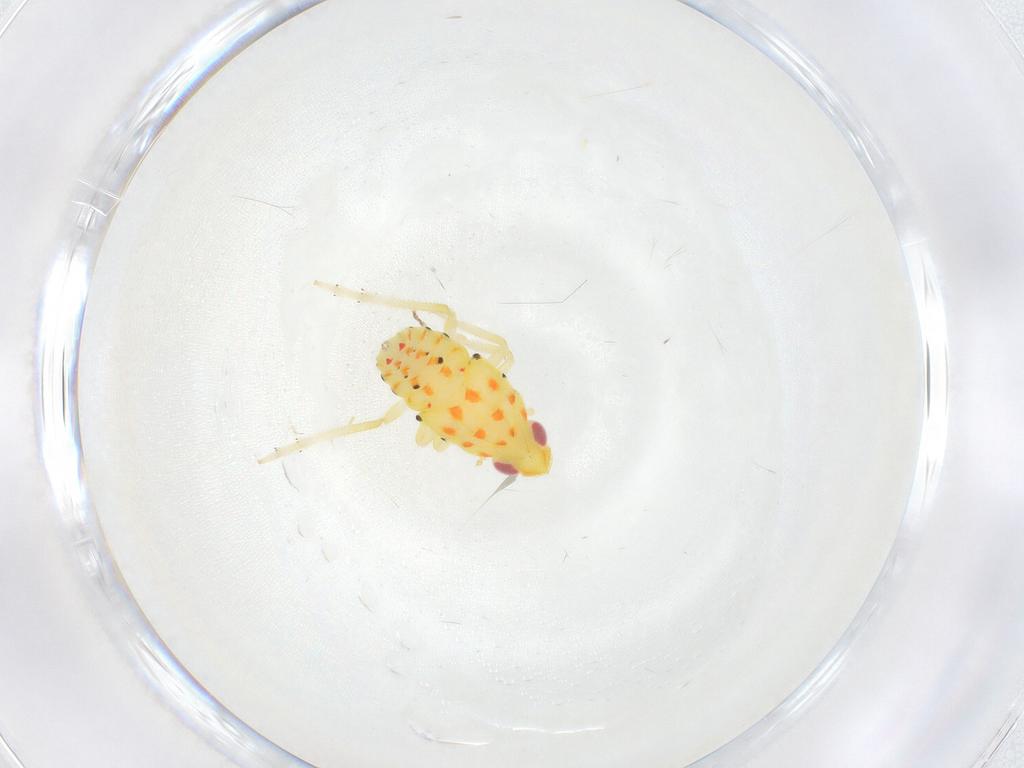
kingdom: Animalia
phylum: Arthropoda
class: Insecta
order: Hemiptera
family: Tropiduchidae
